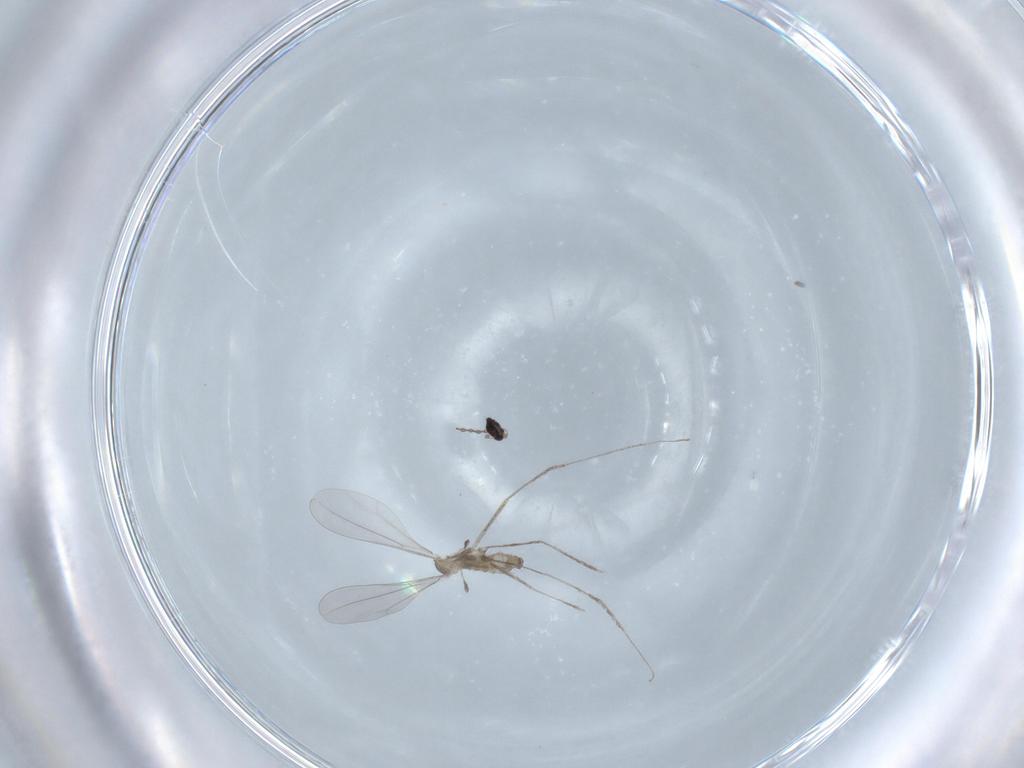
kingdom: Animalia
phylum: Arthropoda
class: Insecta
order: Diptera
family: Cecidomyiidae
